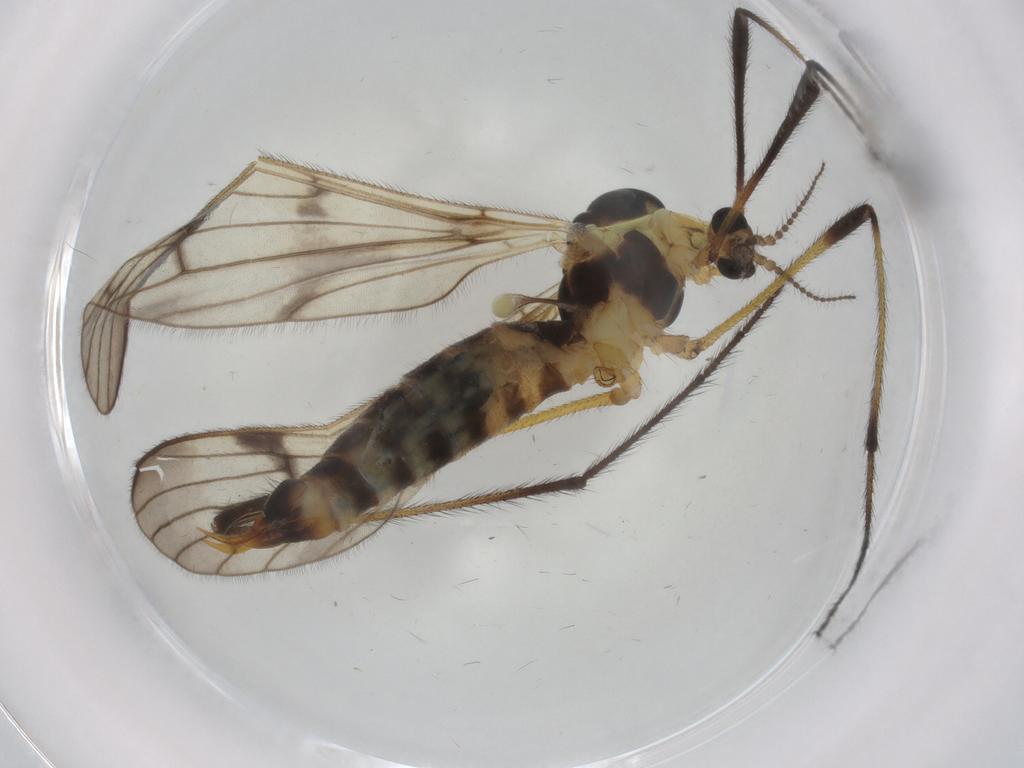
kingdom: Animalia
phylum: Arthropoda
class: Insecta
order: Diptera
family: Limoniidae
